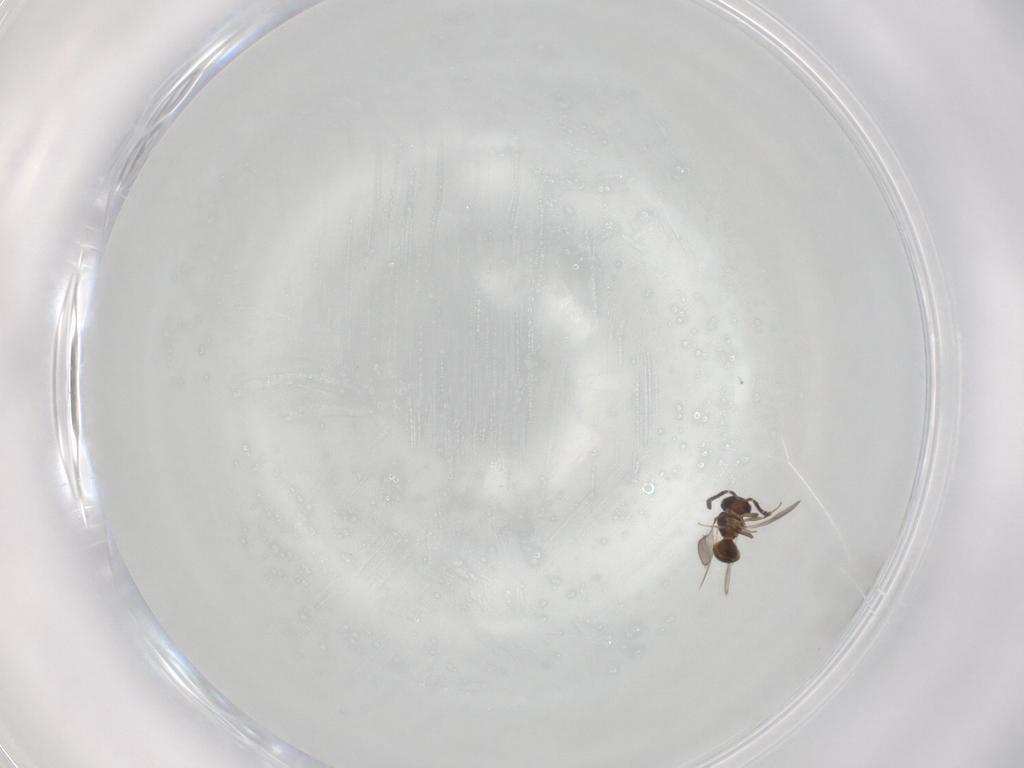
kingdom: Animalia
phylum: Arthropoda
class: Insecta
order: Hymenoptera
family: Scelionidae
